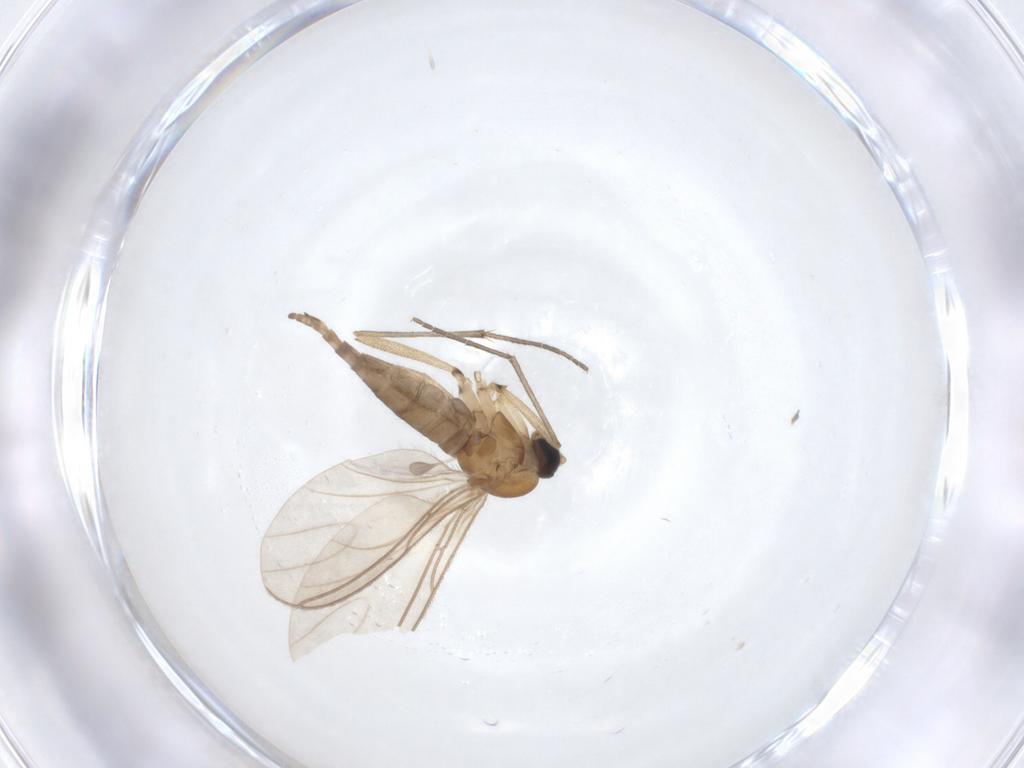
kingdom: Animalia
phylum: Arthropoda
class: Insecta
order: Diptera
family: Sciaridae
